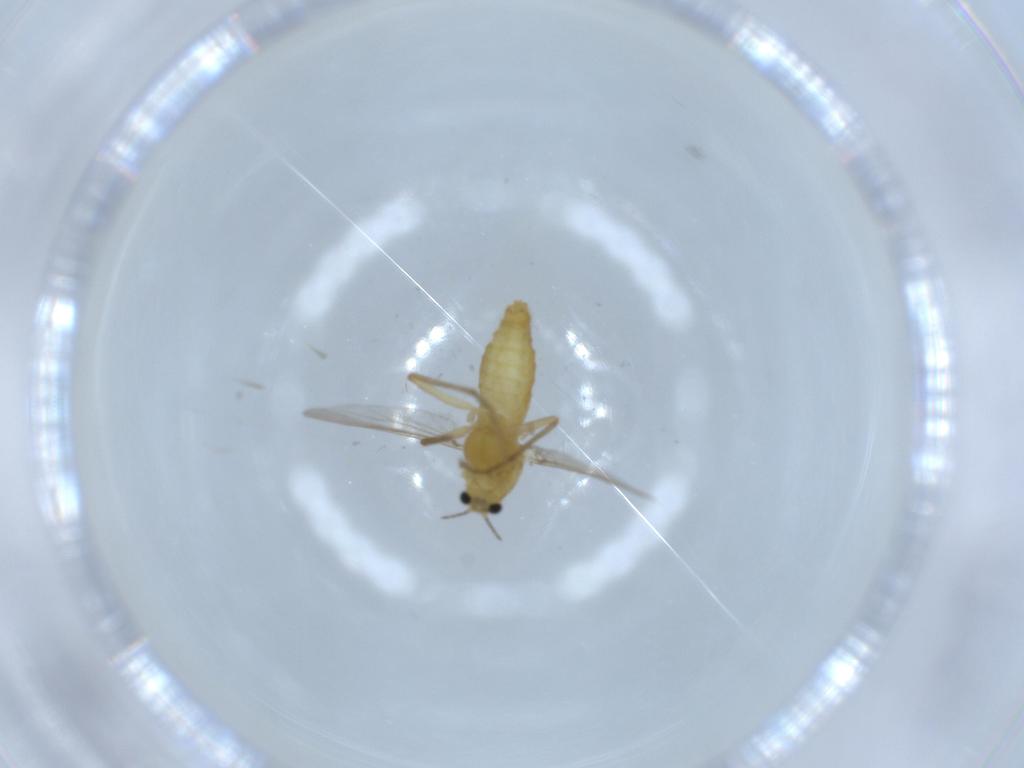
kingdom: Animalia
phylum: Arthropoda
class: Insecta
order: Diptera
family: Chironomidae
